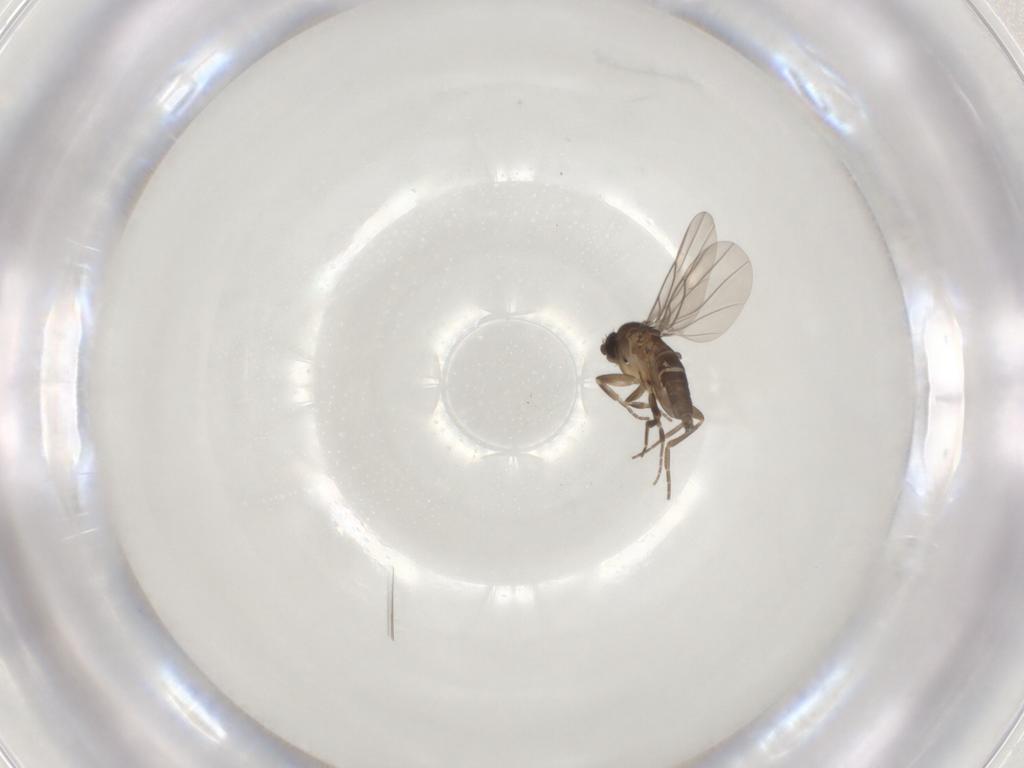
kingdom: Animalia
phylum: Arthropoda
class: Insecta
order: Diptera
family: Phoridae
